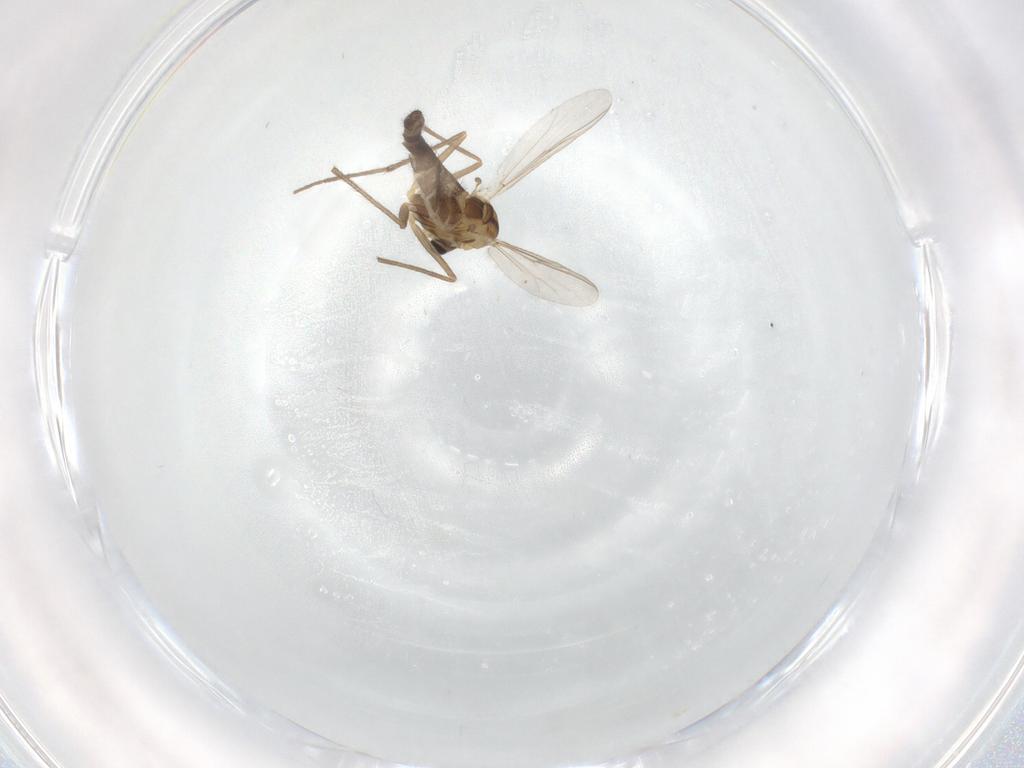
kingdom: Animalia
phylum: Arthropoda
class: Insecta
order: Diptera
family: Chironomidae
